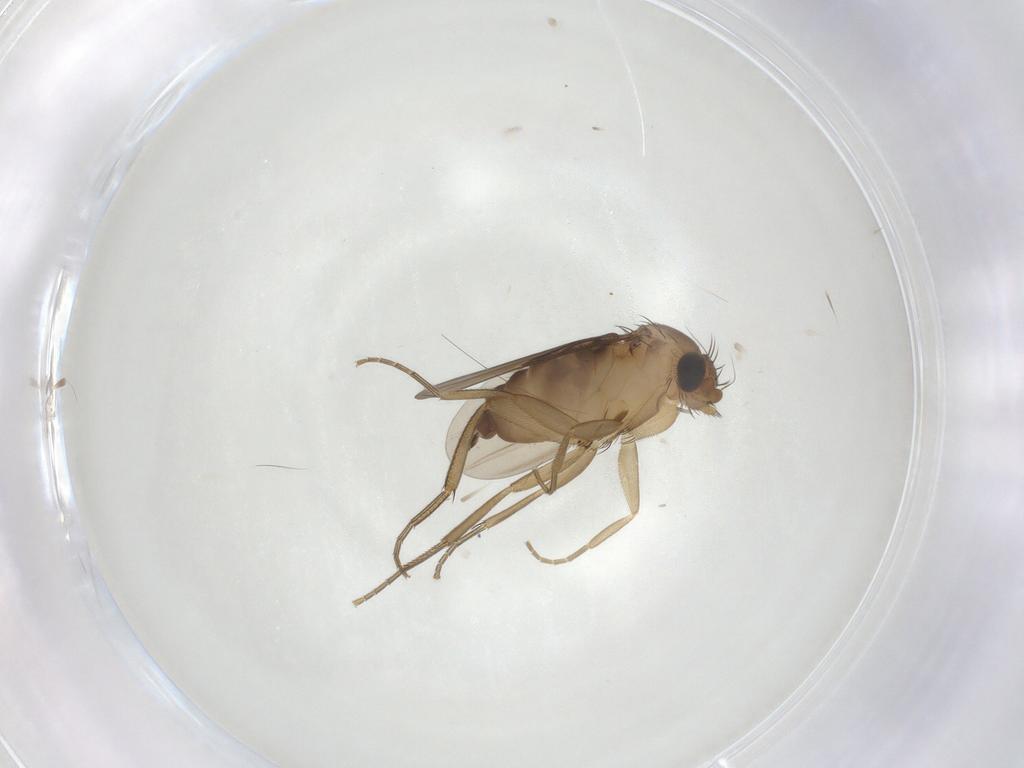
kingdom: Animalia
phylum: Arthropoda
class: Insecta
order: Diptera
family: Phoridae
